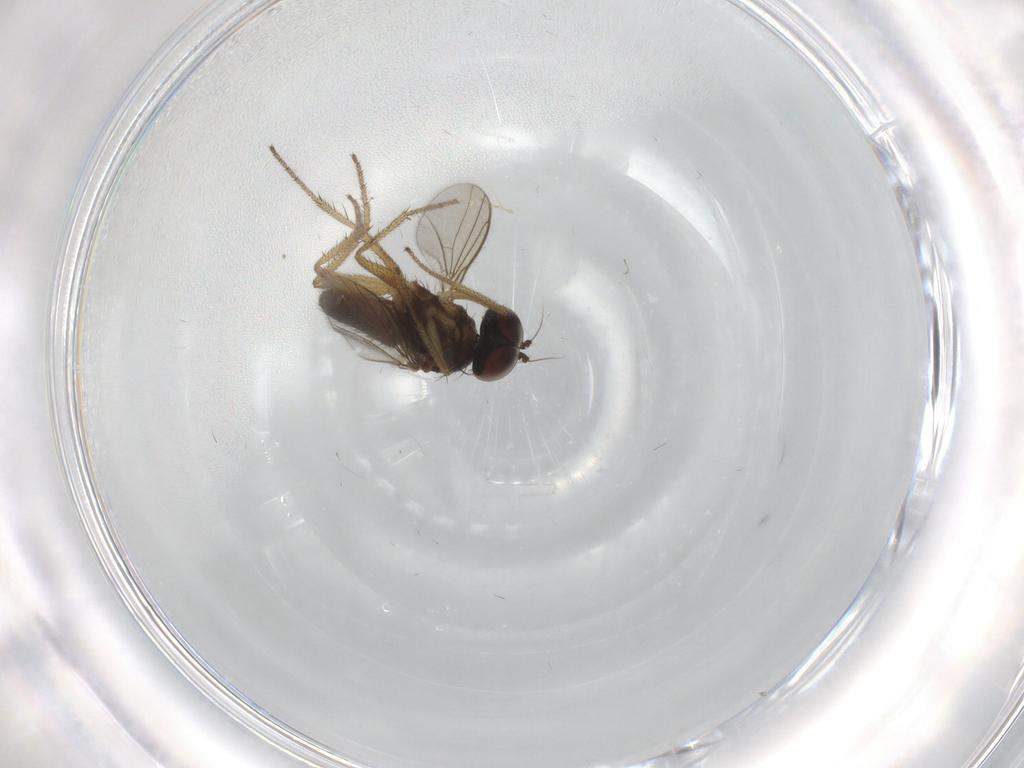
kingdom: Animalia
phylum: Arthropoda
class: Insecta
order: Diptera
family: Chironomidae
